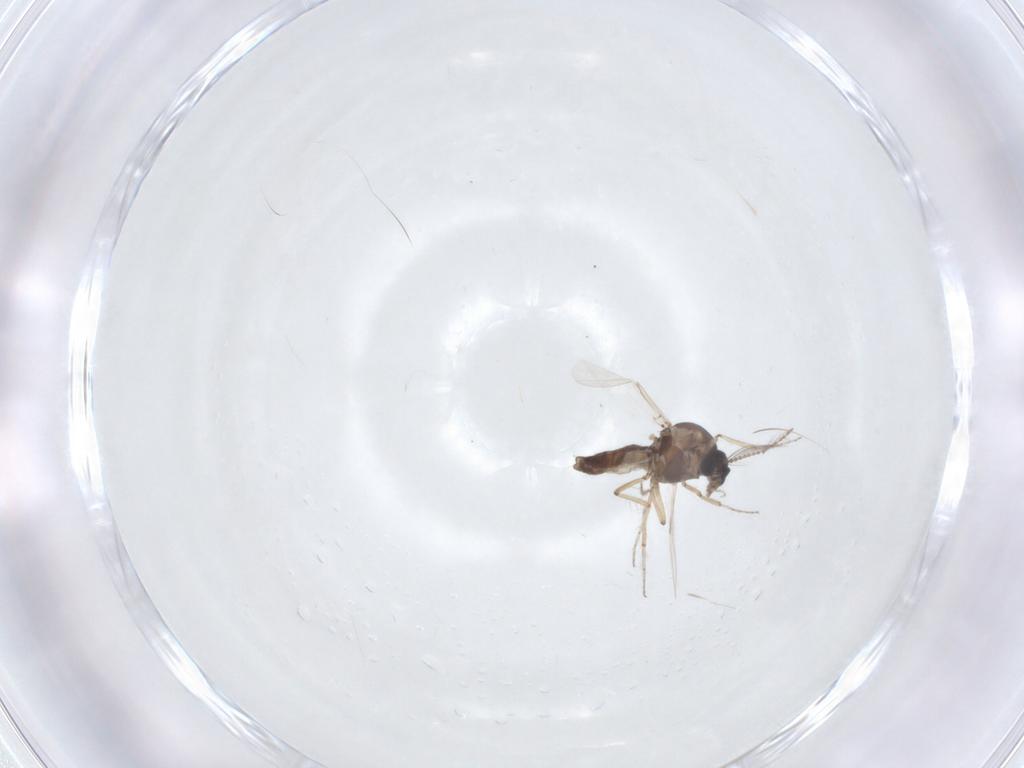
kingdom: Animalia
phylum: Arthropoda
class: Insecta
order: Diptera
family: Ceratopogonidae
